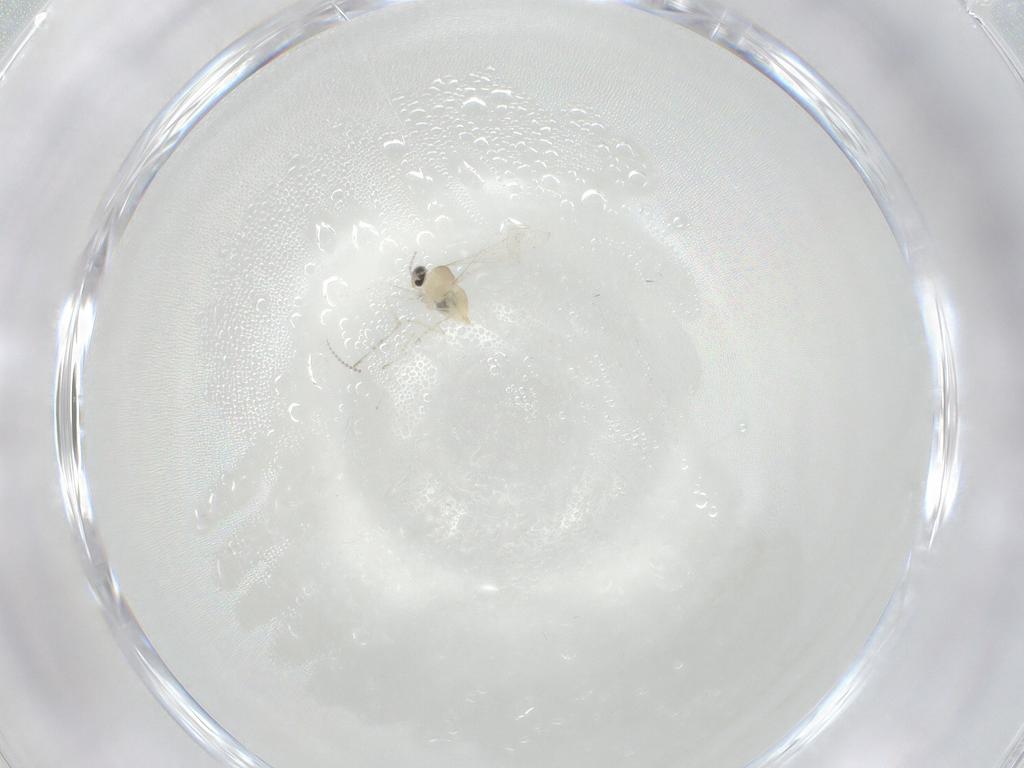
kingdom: Animalia
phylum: Arthropoda
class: Insecta
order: Diptera
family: Cecidomyiidae
